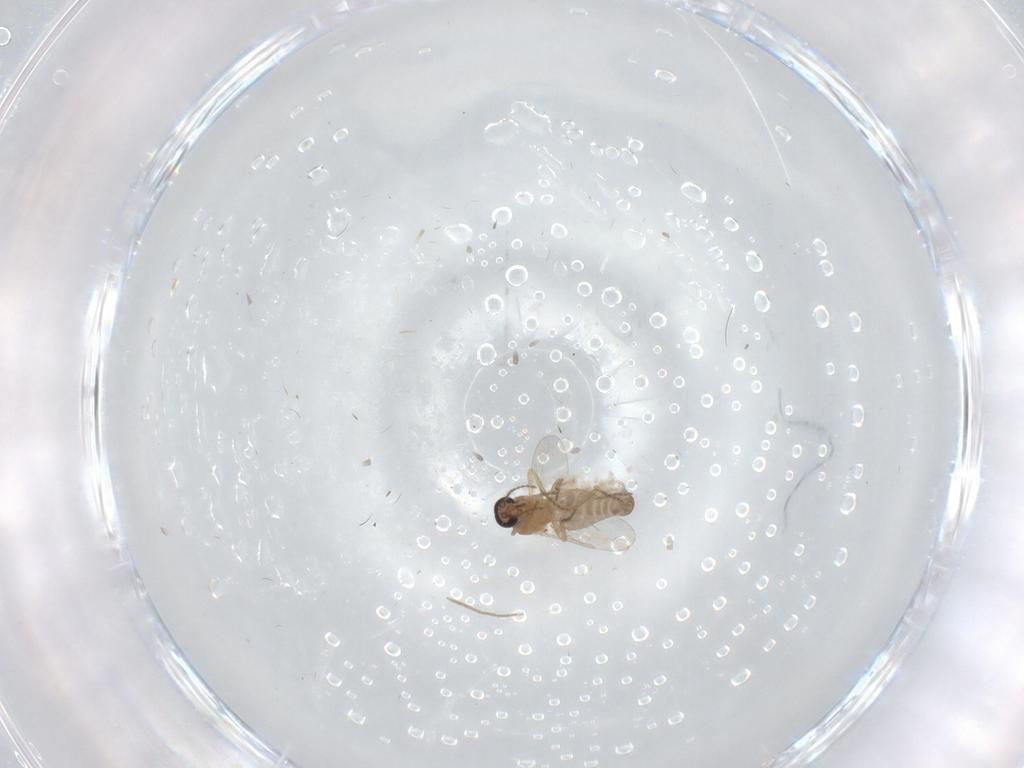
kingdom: Animalia
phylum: Arthropoda
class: Insecta
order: Diptera
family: Ceratopogonidae
